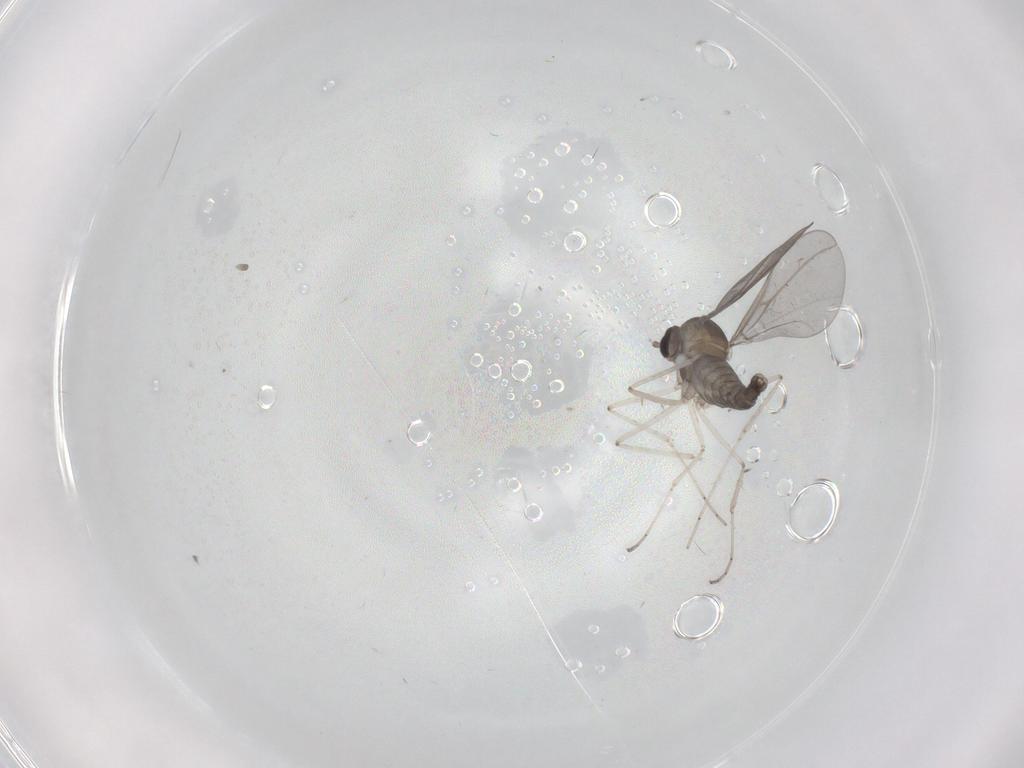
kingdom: Animalia
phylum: Arthropoda
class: Insecta
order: Diptera
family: Cecidomyiidae
